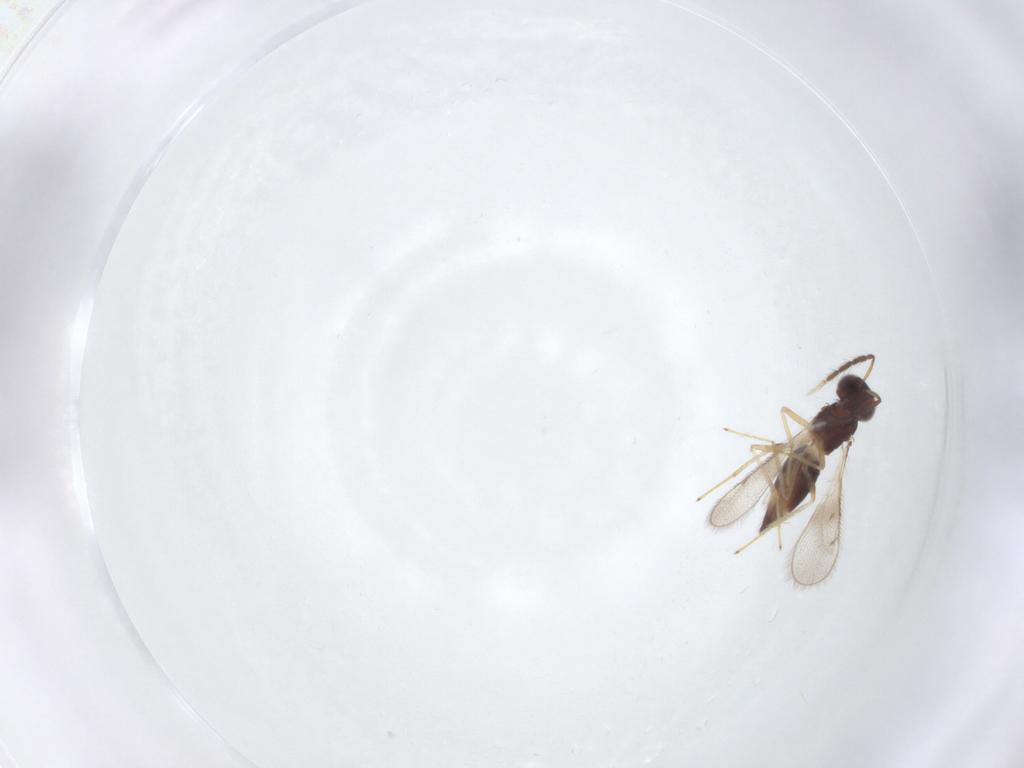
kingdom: Animalia
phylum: Arthropoda
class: Insecta
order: Hymenoptera
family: Eulophidae
